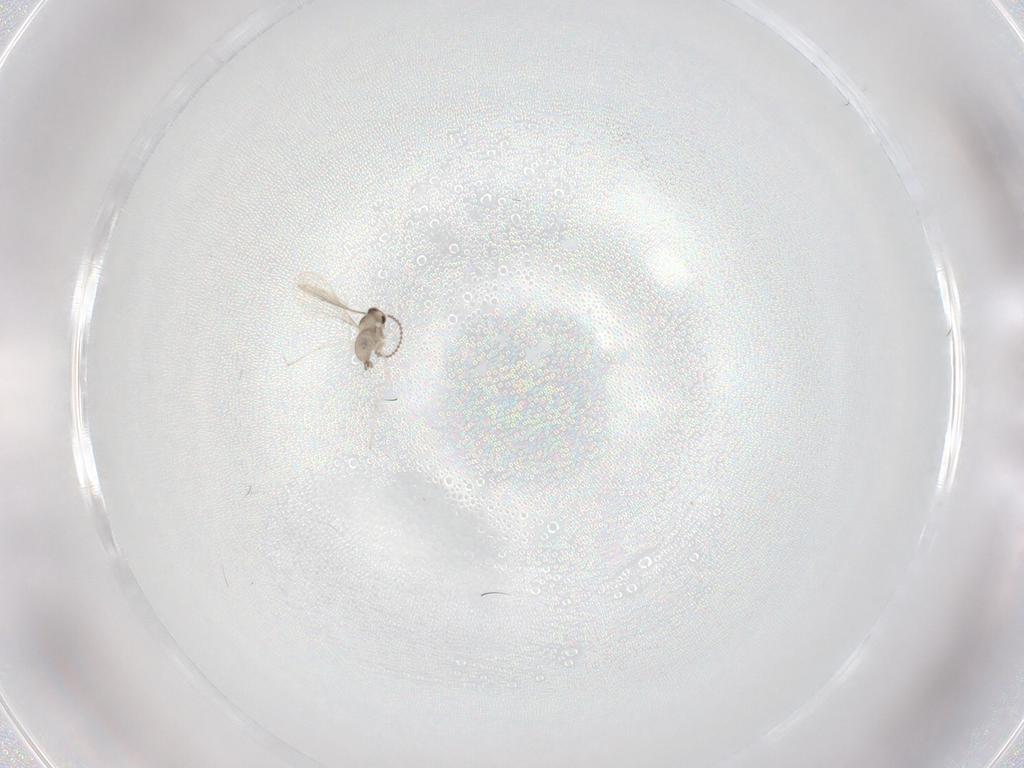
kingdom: Animalia
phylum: Arthropoda
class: Insecta
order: Diptera
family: Cecidomyiidae
